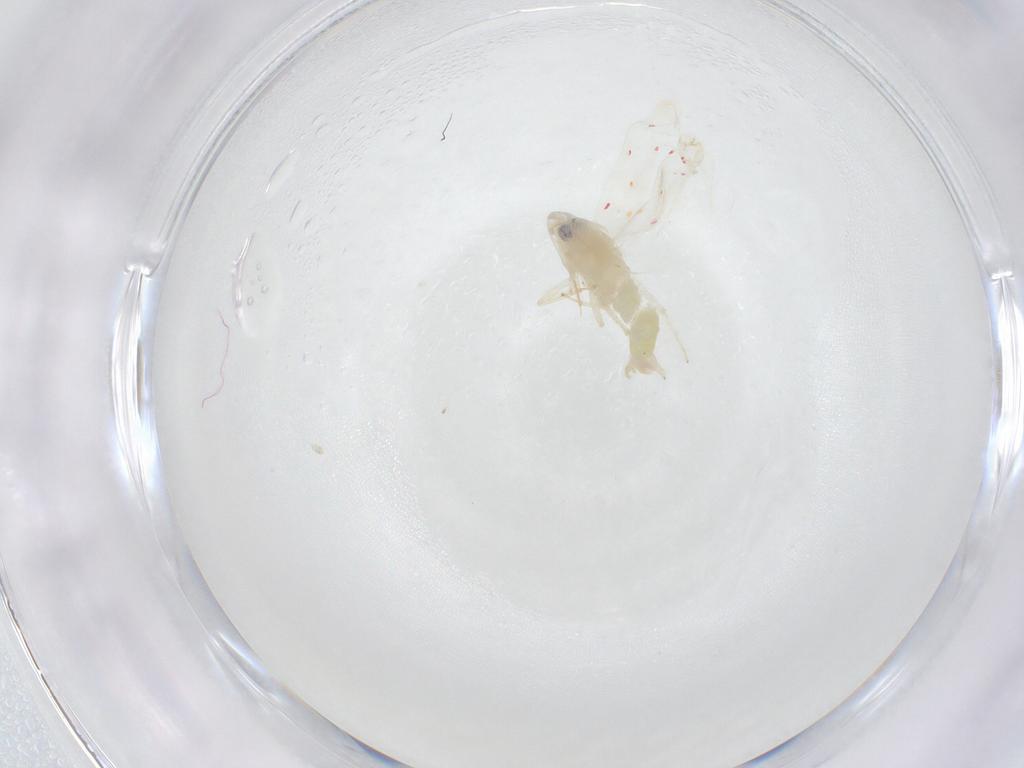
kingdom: Animalia
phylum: Arthropoda
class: Insecta
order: Hemiptera
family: Cicadellidae
